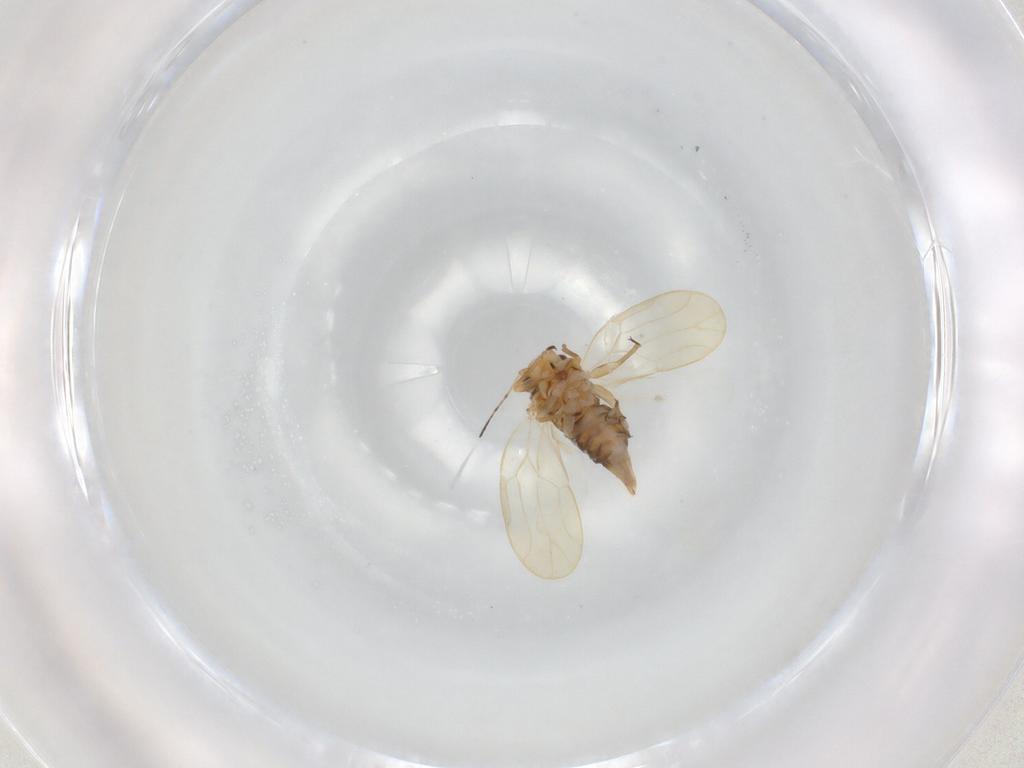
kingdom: Animalia
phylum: Arthropoda
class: Insecta
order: Hemiptera
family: Psylloidea_incertae_sedis
